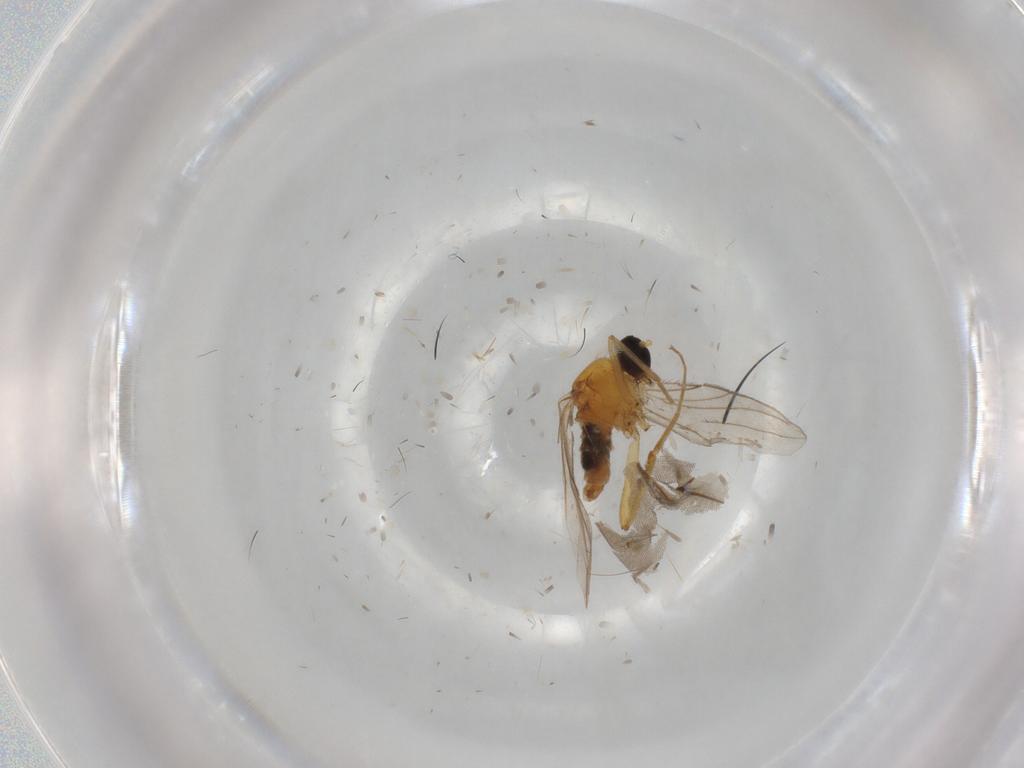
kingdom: Animalia
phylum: Arthropoda
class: Insecta
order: Diptera
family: Hybotidae
